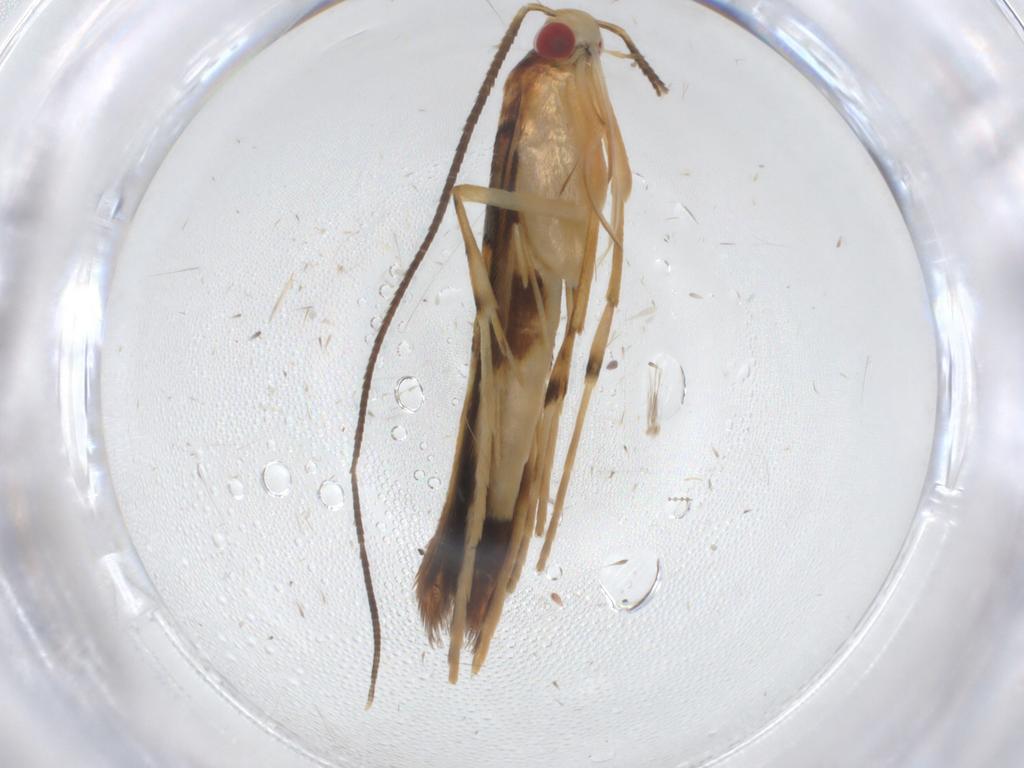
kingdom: Animalia
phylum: Arthropoda
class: Insecta
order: Lepidoptera
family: Gracillariidae
